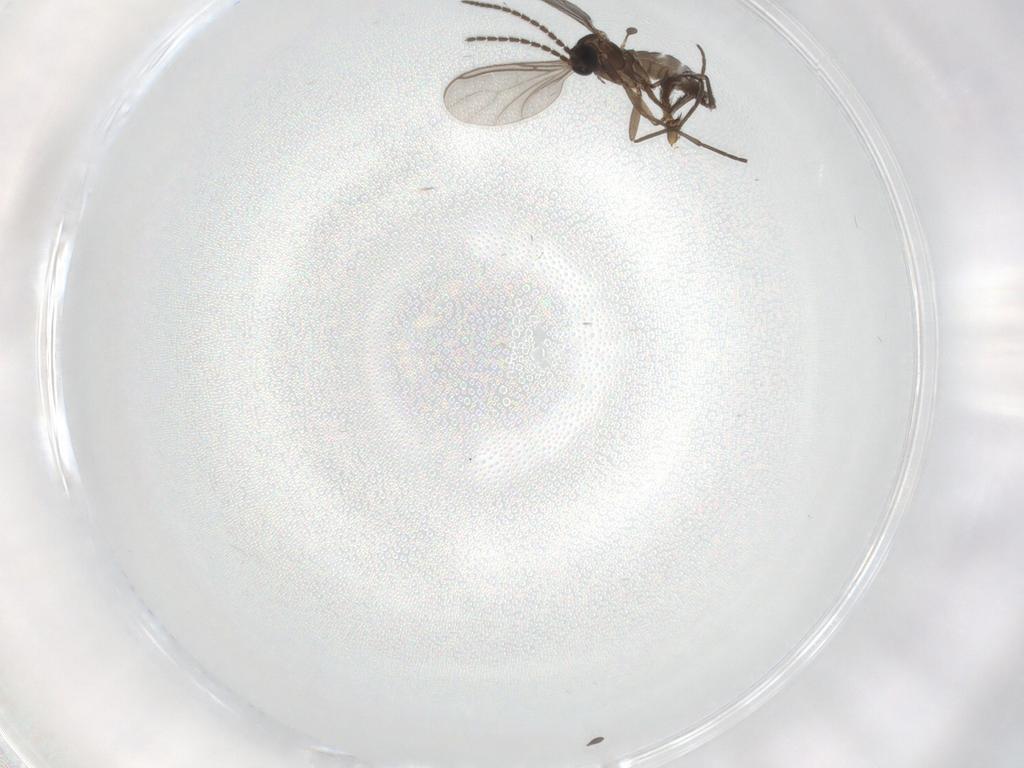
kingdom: Animalia
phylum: Arthropoda
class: Insecta
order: Diptera
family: Sciaridae
